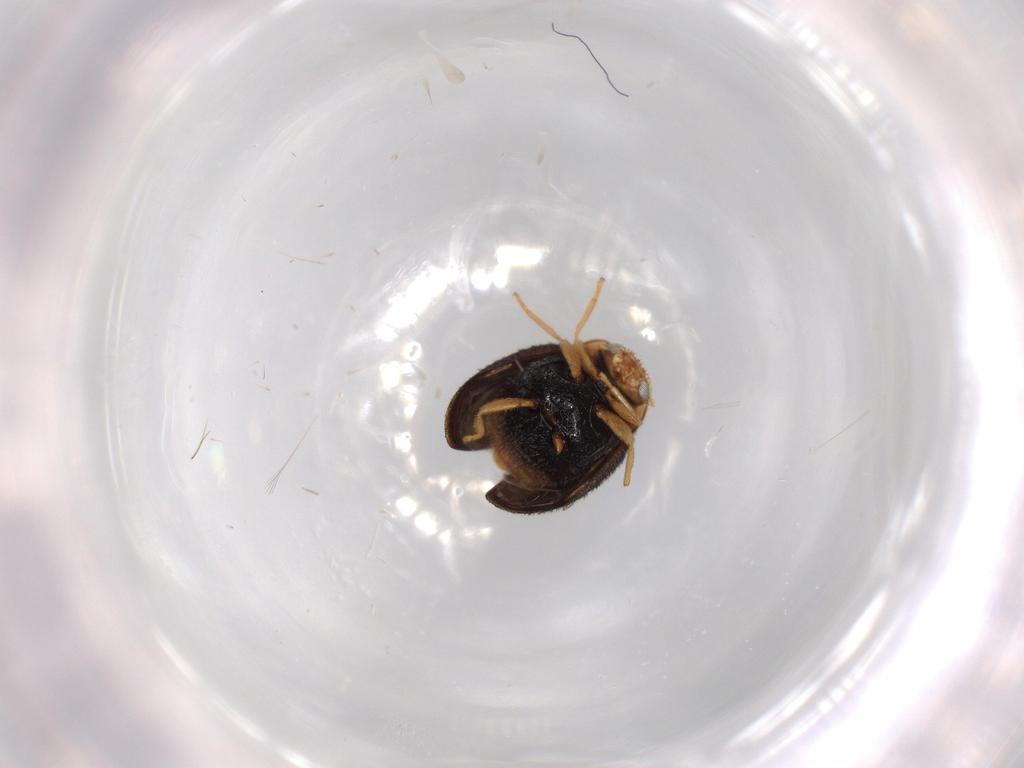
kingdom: Animalia
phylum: Arthropoda
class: Insecta
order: Coleoptera
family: Coccinellidae
